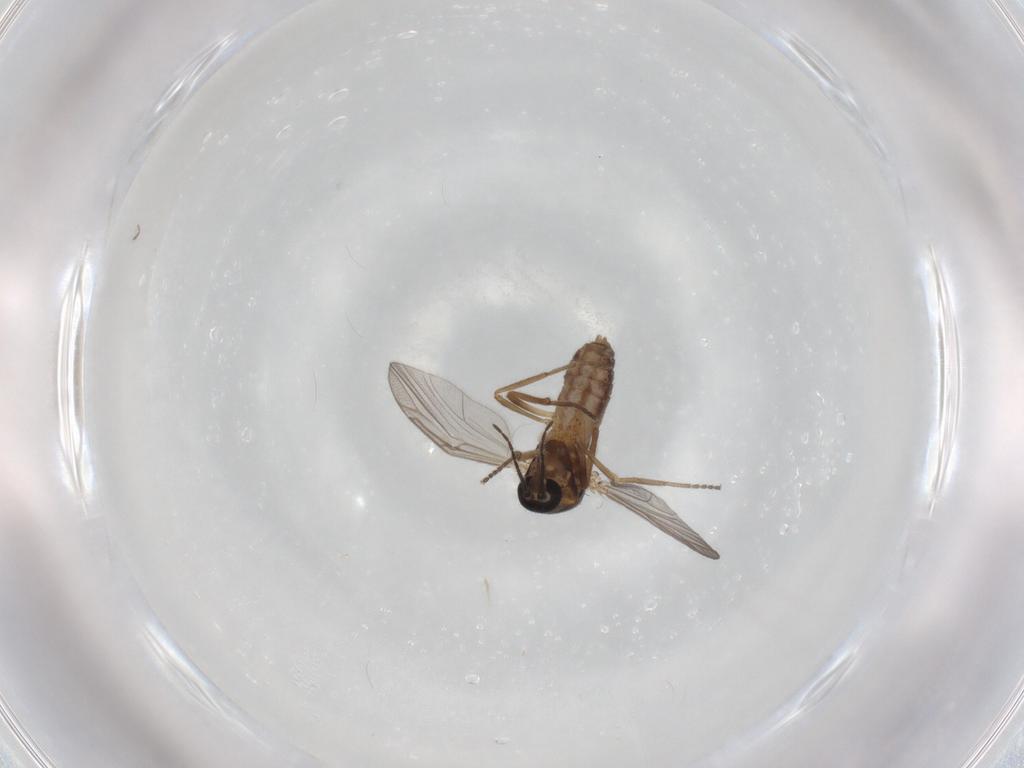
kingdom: Animalia
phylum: Arthropoda
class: Insecta
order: Diptera
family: Ceratopogonidae
